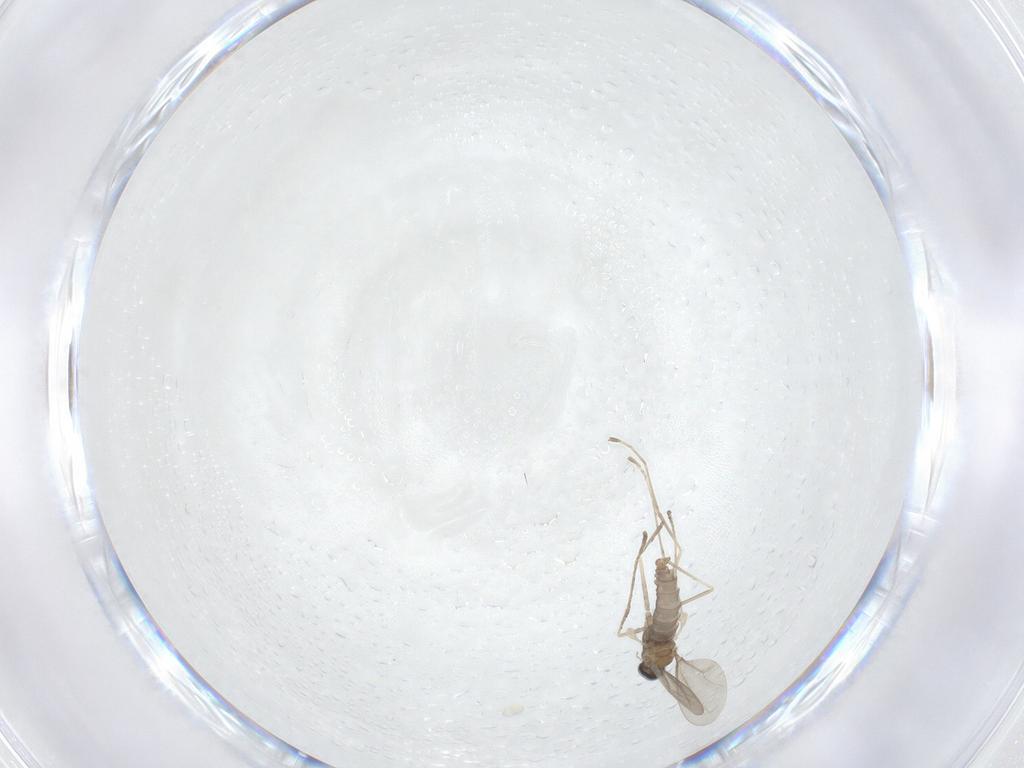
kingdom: Animalia
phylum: Arthropoda
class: Insecta
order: Diptera
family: Cecidomyiidae
